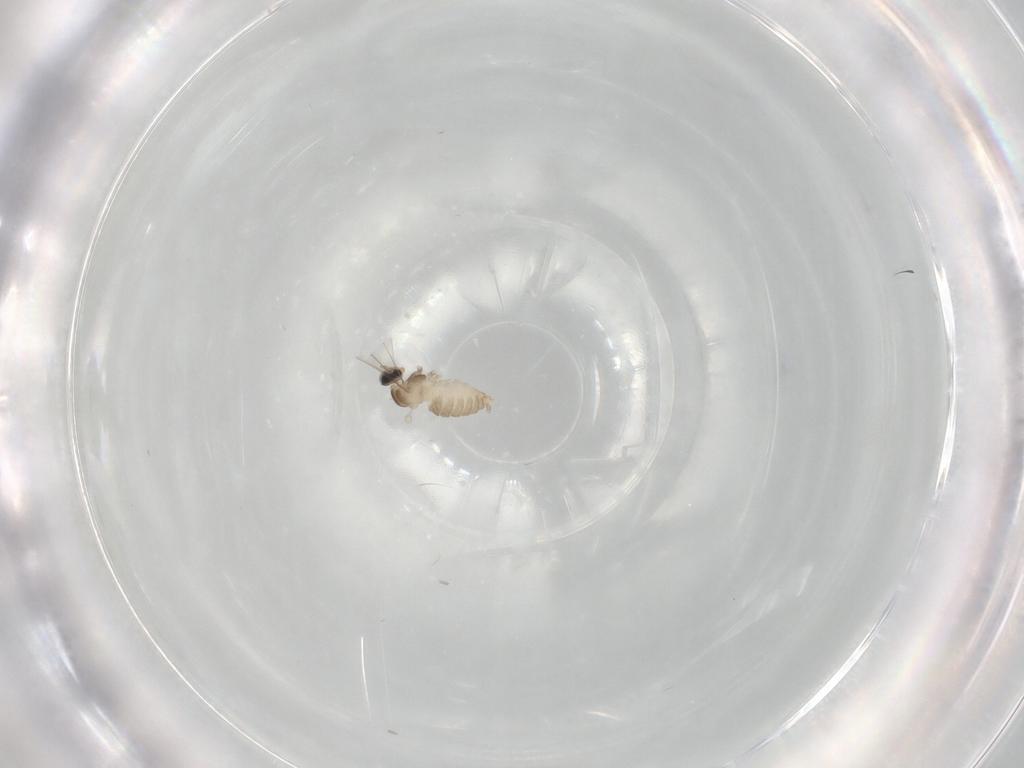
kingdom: Animalia
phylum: Arthropoda
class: Insecta
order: Diptera
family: Cecidomyiidae
